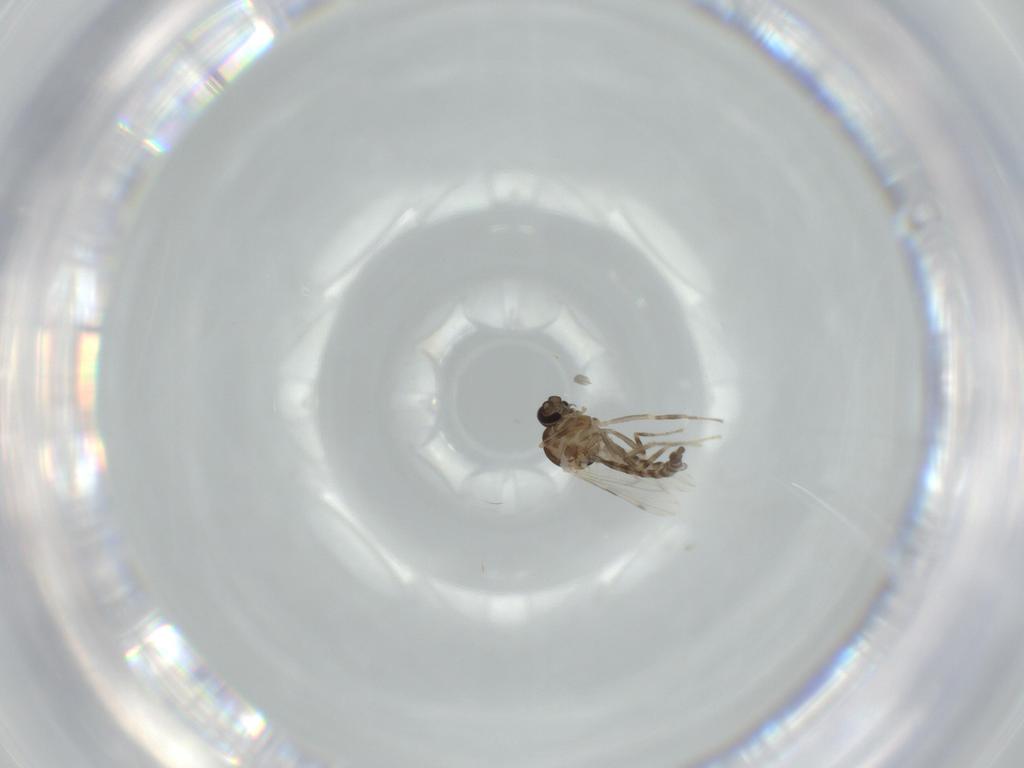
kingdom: Animalia
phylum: Arthropoda
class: Insecta
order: Diptera
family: Ceratopogonidae
